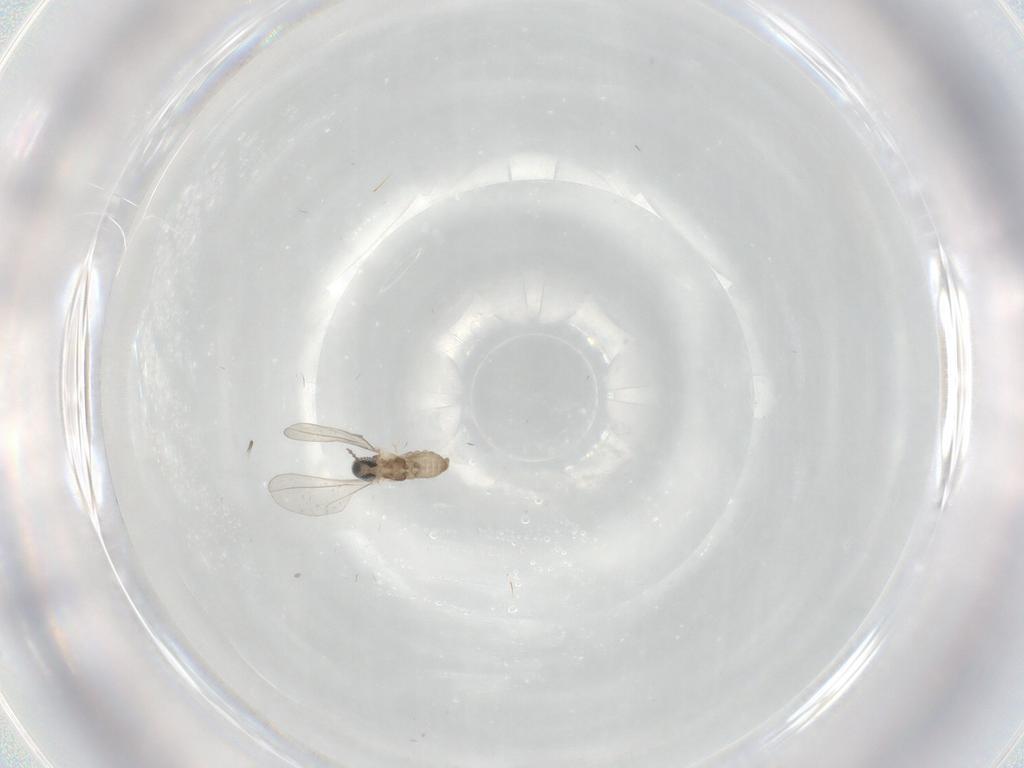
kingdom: Animalia
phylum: Arthropoda
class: Insecta
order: Diptera
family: Cecidomyiidae
